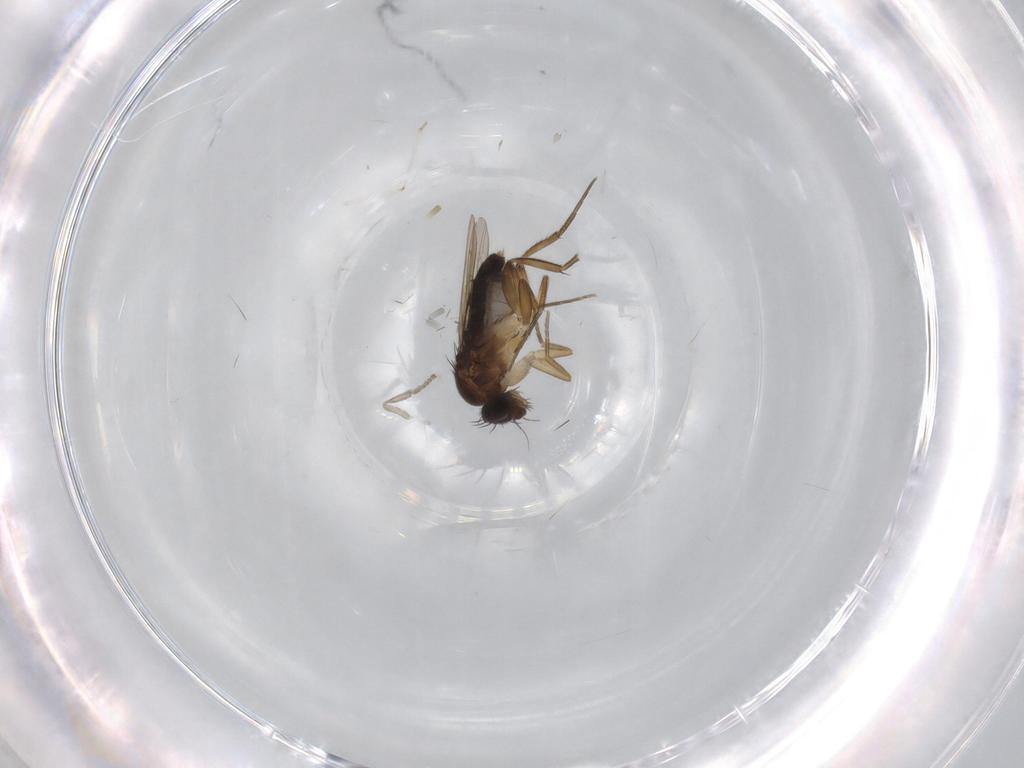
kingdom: Animalia
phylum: Arthropoda
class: Insecta
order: Diptera
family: Phoridae
